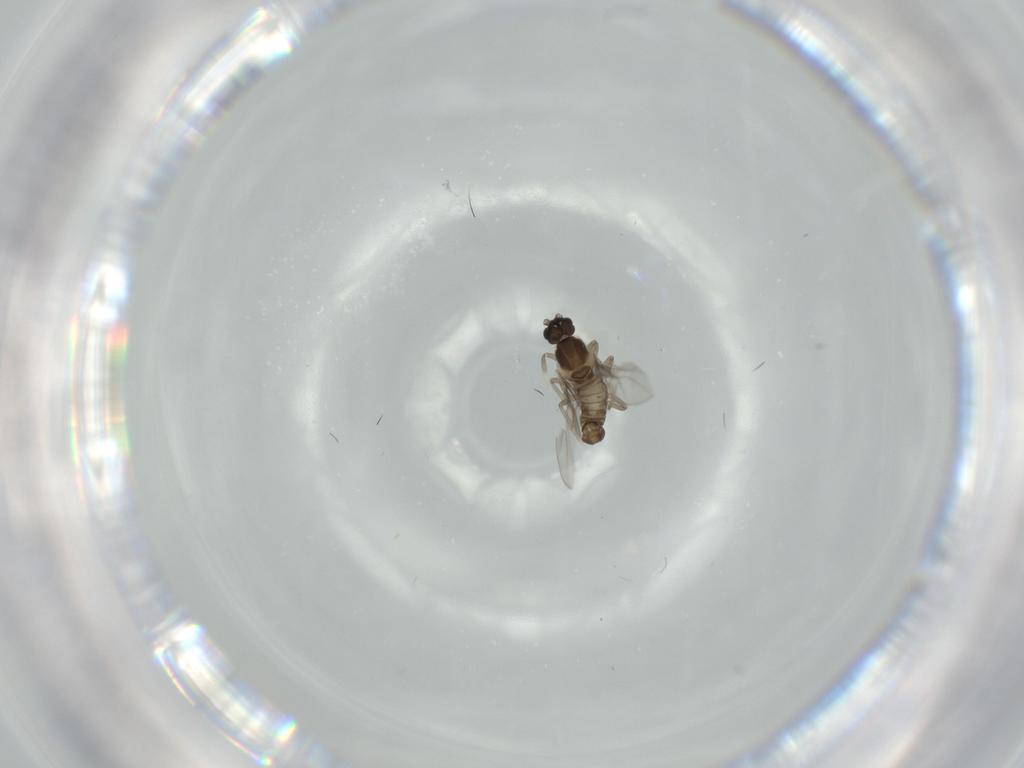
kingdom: Animalia
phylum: Arthropoda
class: Insecta
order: Diptera
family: Cecidomyiidae
